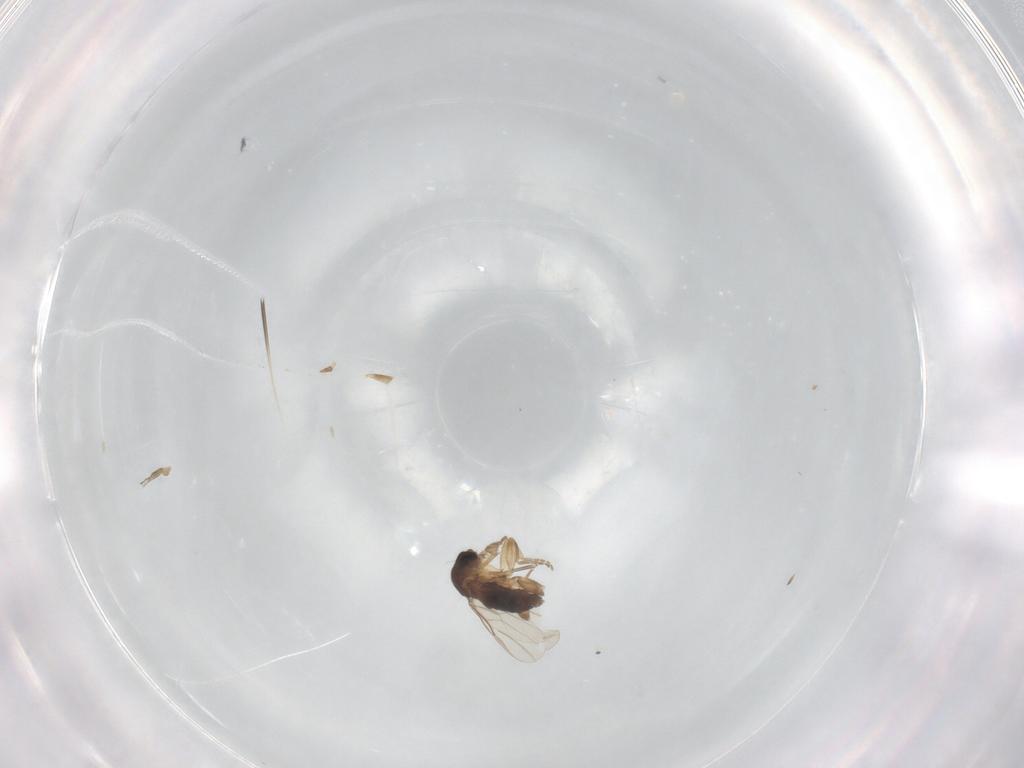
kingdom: Animalia
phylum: Arthropoda
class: Insecta
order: Diptera
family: Phoridae
